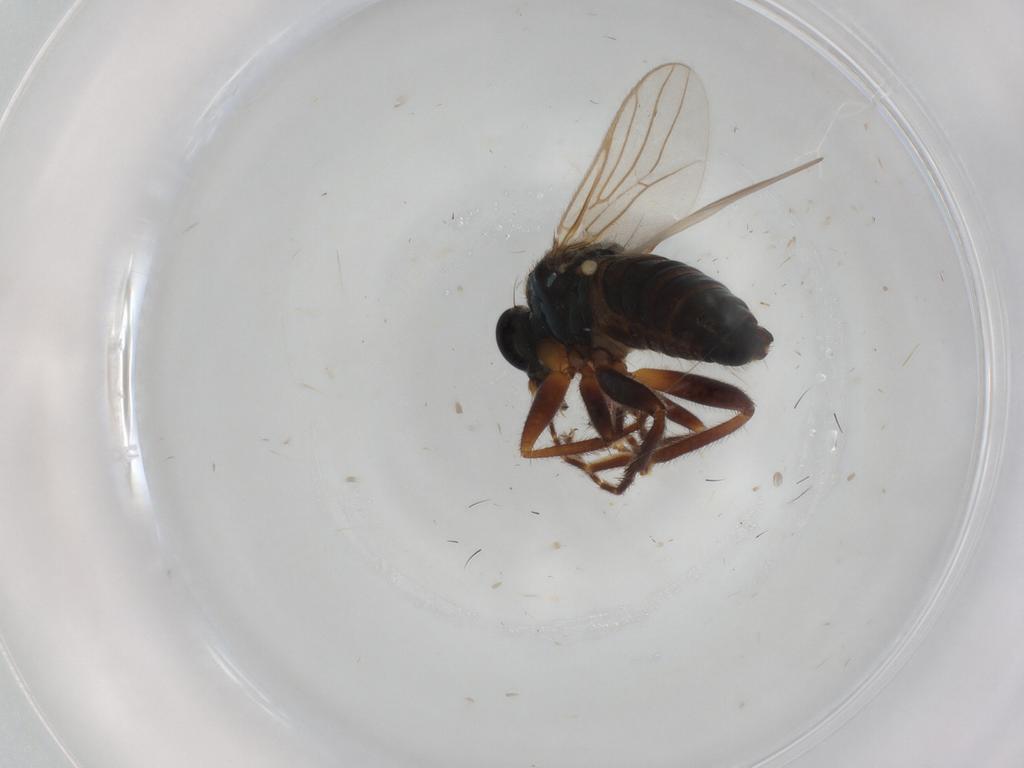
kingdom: Animalia
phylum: Arthropoda
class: Insecta
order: Diptera
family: Hybotidae
